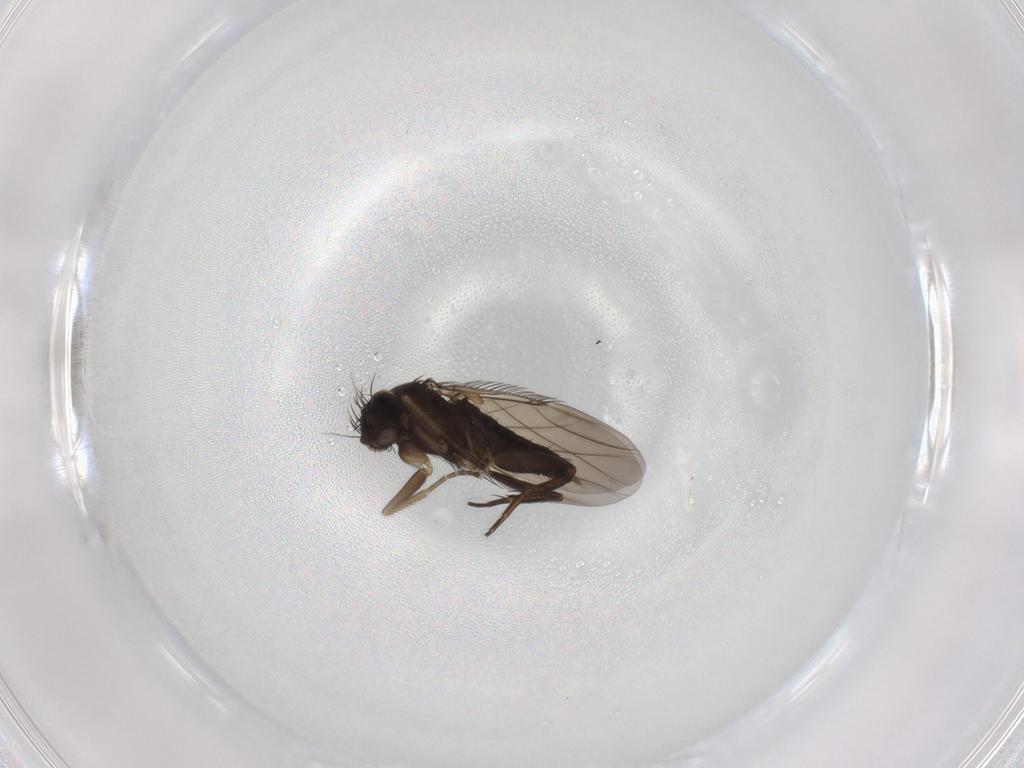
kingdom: Animalia
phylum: Arthropoda
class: Insecta
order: Diptera
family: Phoridae
